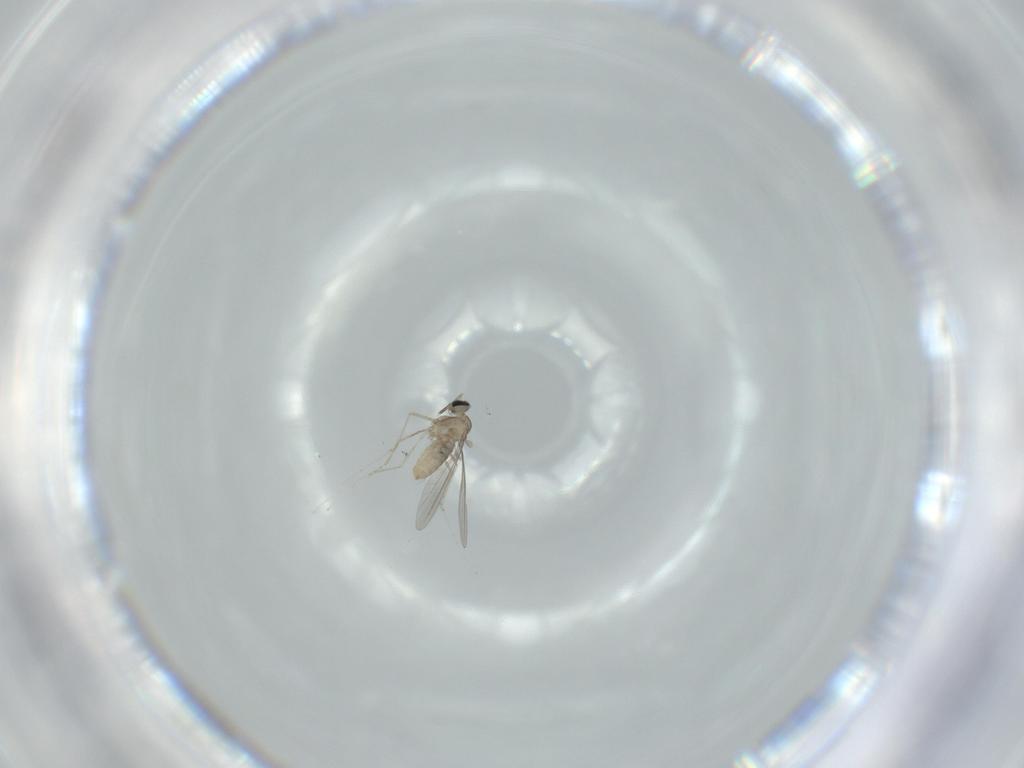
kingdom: Animalia
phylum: Arthropoda
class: Insecta
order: Diptera
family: Cecidomyiidae
